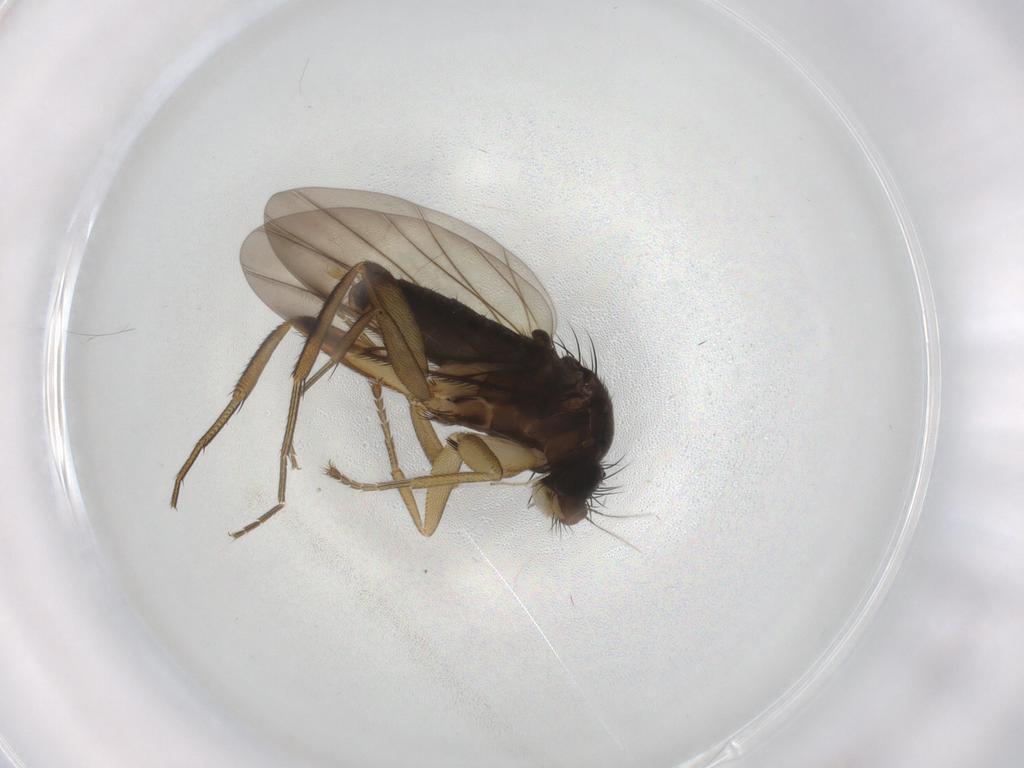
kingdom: Animalia
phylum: Arthropoda
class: Insecta
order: Diptera
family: Phoridae
